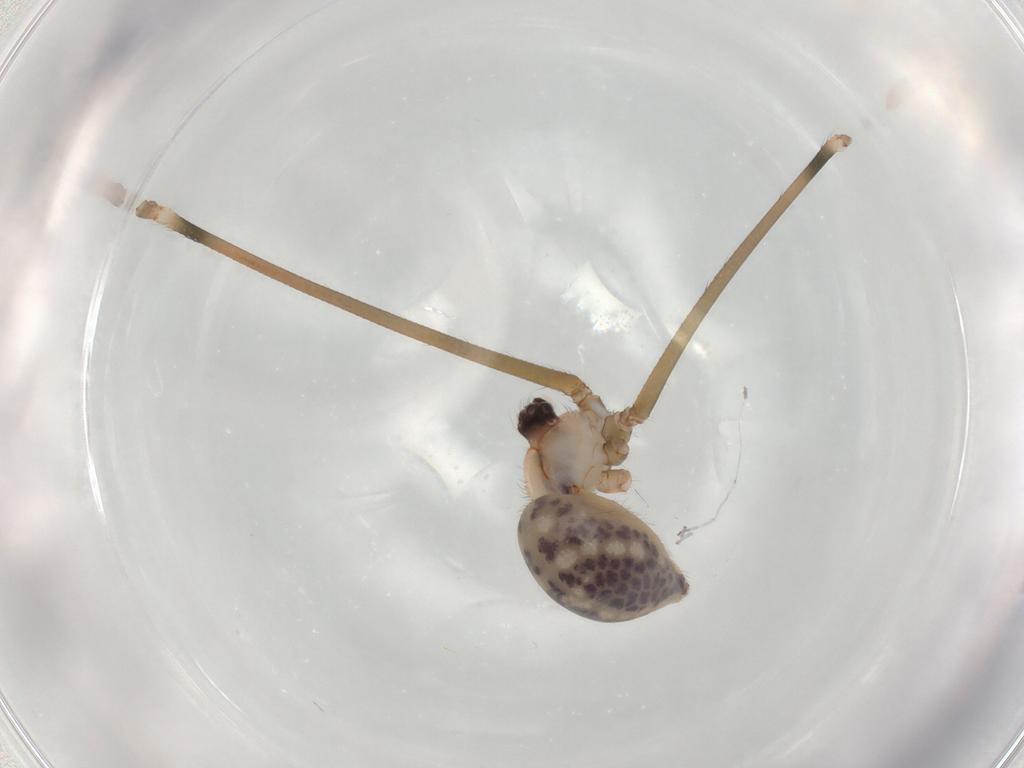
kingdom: Animalia
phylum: Arthropoda
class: Arachnida
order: Araneae
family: Pholcidae
